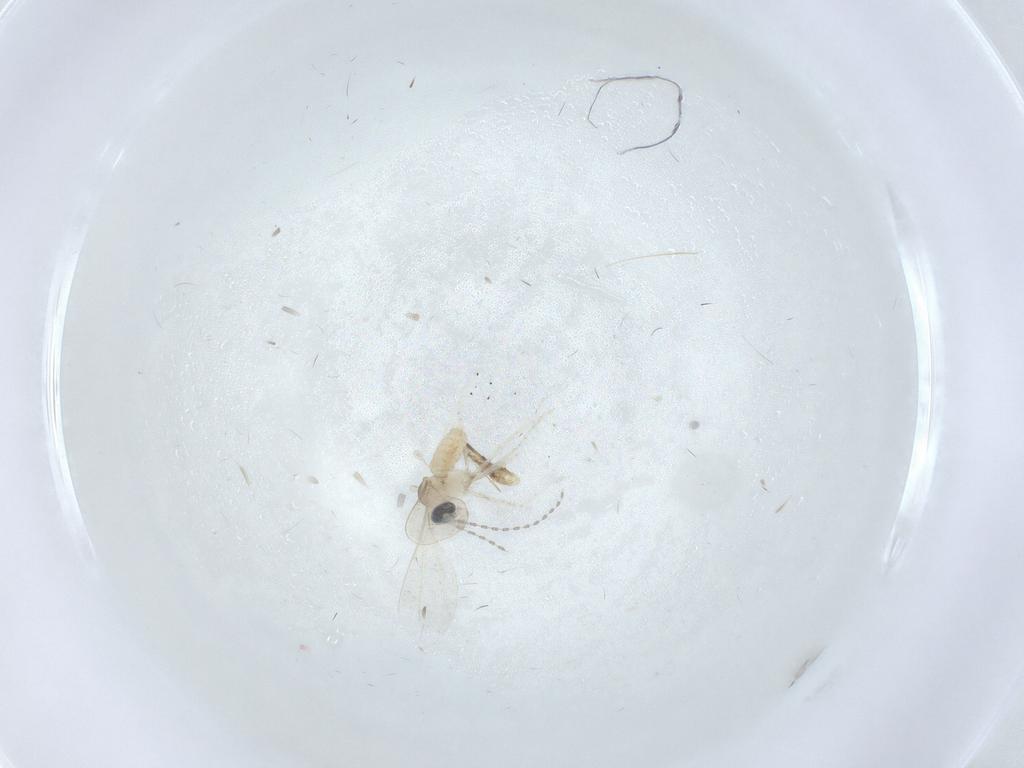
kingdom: Animalia
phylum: Arthropoda
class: Insecta
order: Diptera
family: Cecidomyiidae
